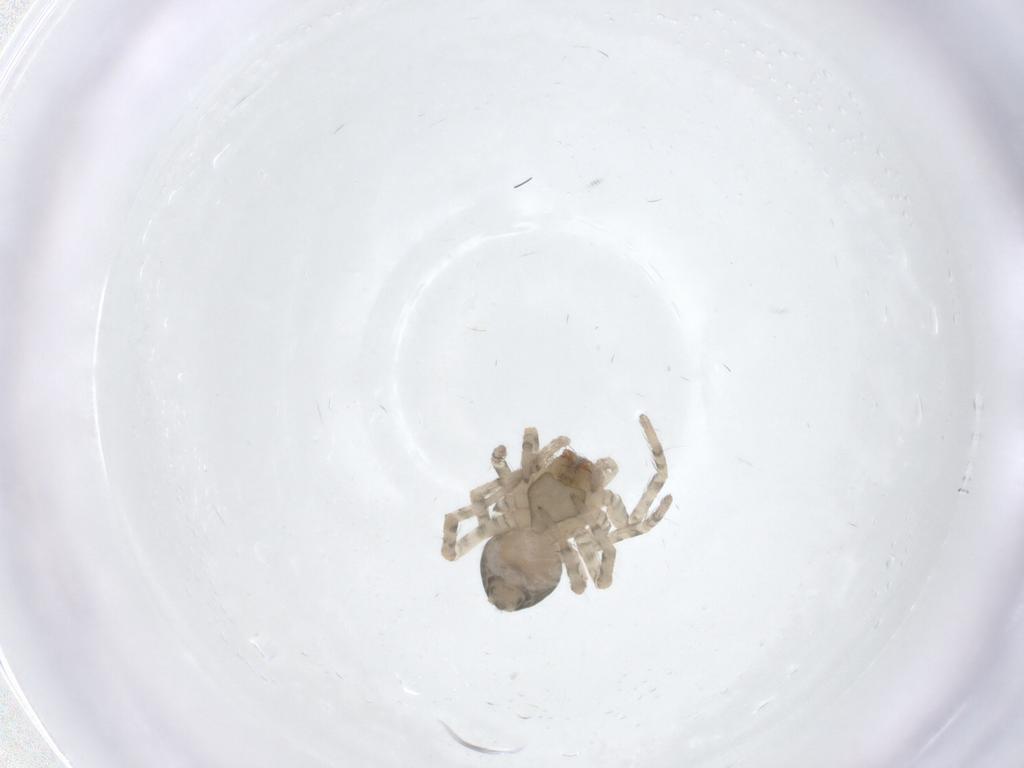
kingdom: Animalia
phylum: Arthropoda
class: Arachnida
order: Araneae
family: Anyphaenidae
